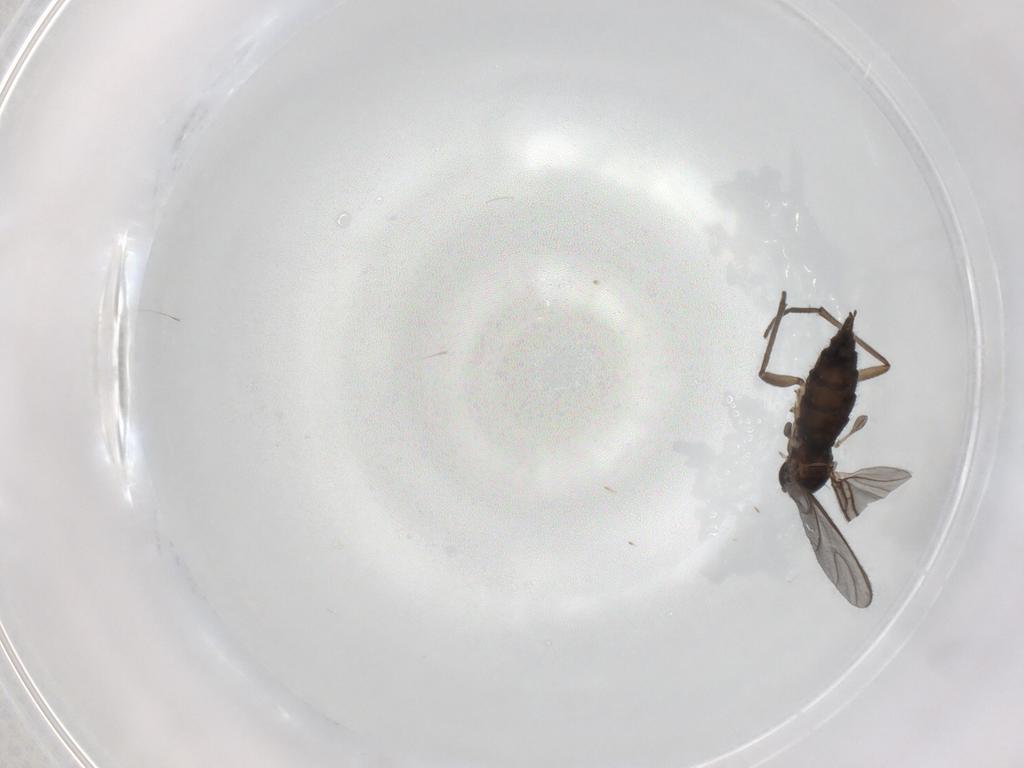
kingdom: Animalia
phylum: Arthropoda
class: Insecta
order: Diptera
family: Sciaridae
